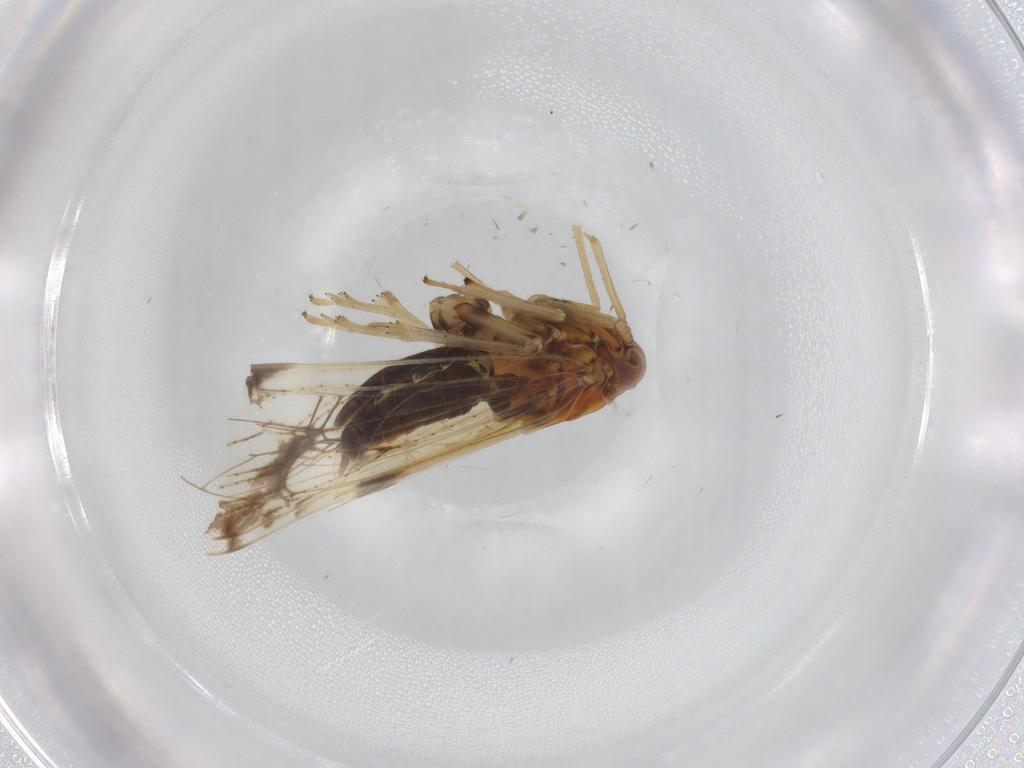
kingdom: Animalia
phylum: Arthropoda
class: Insecta
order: Hemiptera
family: Delphacidae
